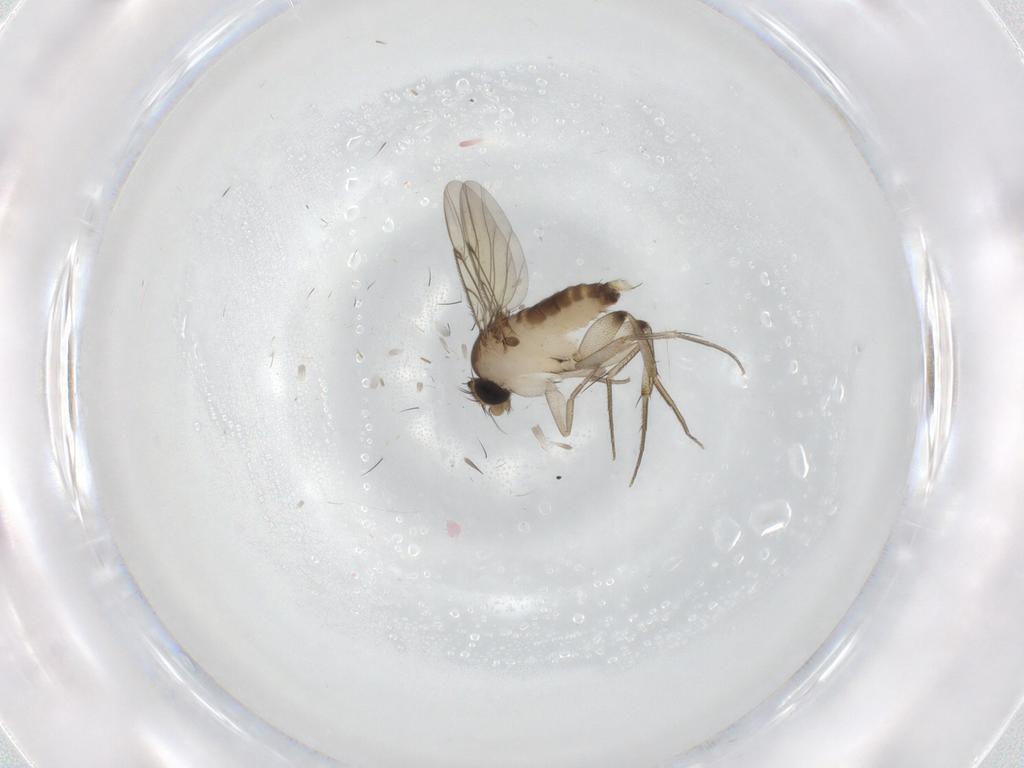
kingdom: Animalia
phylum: Arthropoda
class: Insecta
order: Diptera
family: Phoridae
